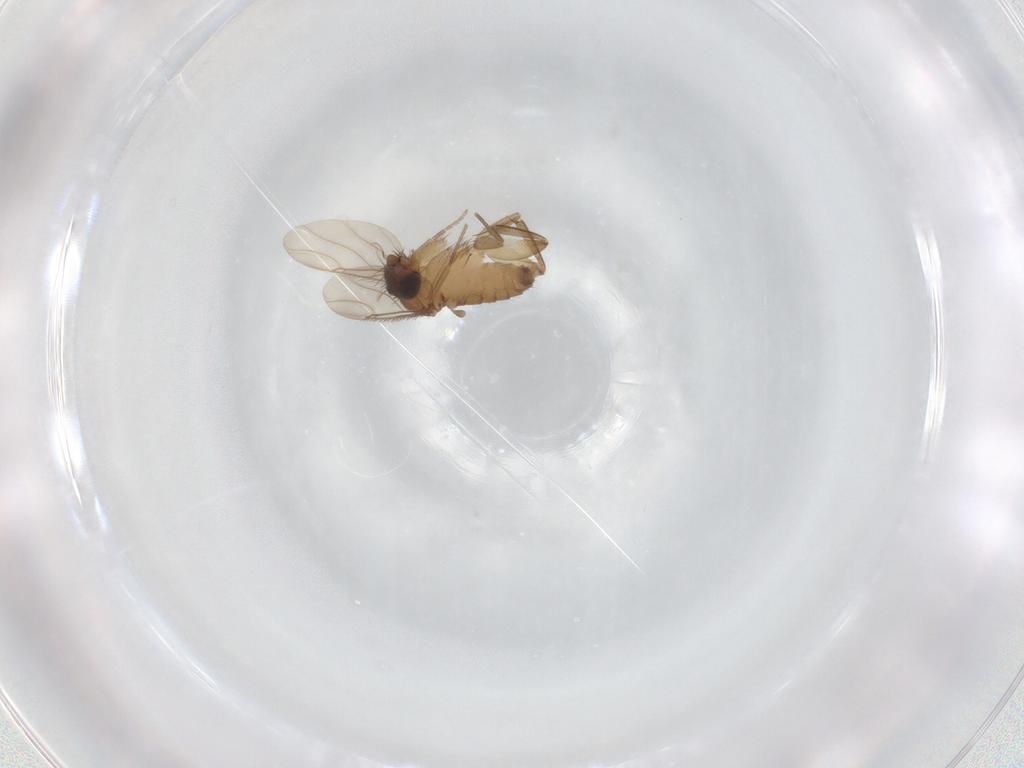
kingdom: Animalia
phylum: Arthropoda
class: Insecta
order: Diptera
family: Phoridae
